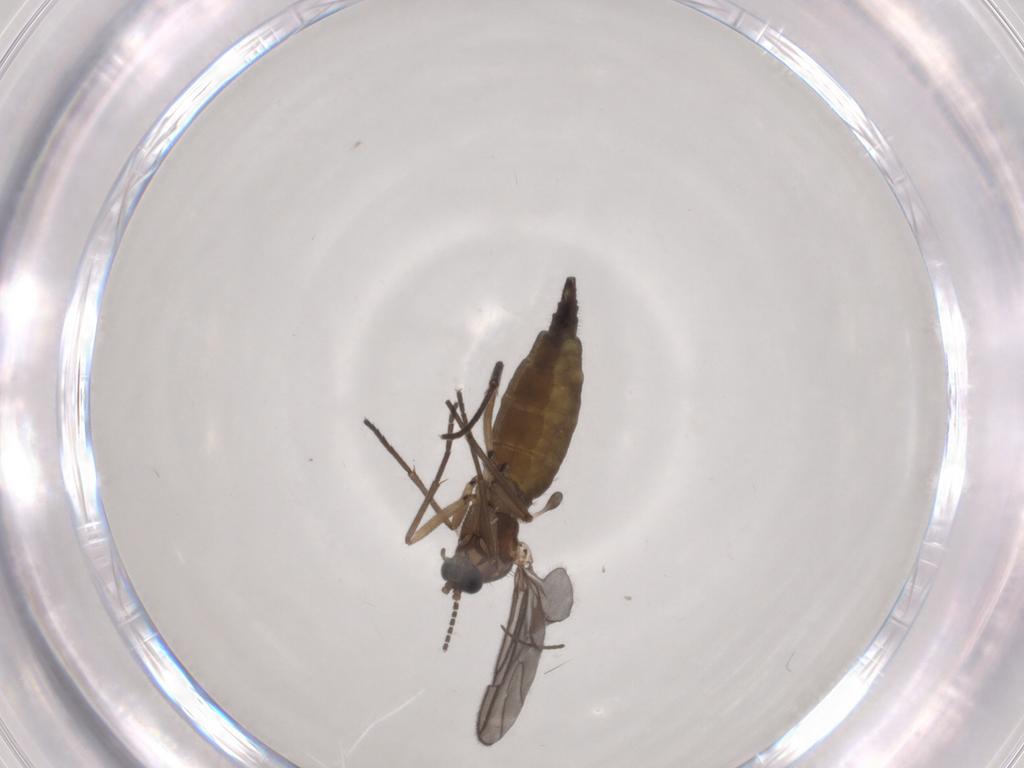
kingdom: Animalia
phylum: Arthropoda
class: Insecta
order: Diptera
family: Sciaridae
